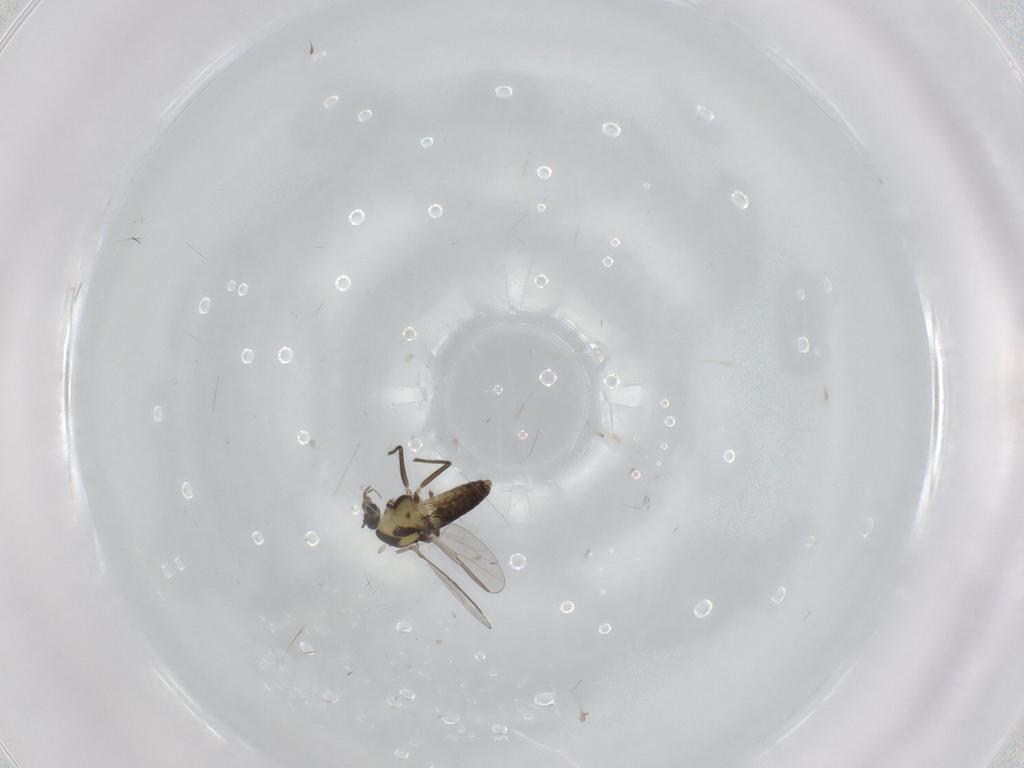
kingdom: Animalia
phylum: Arthropoda
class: Insecta
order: Diptera
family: Chironomidae
